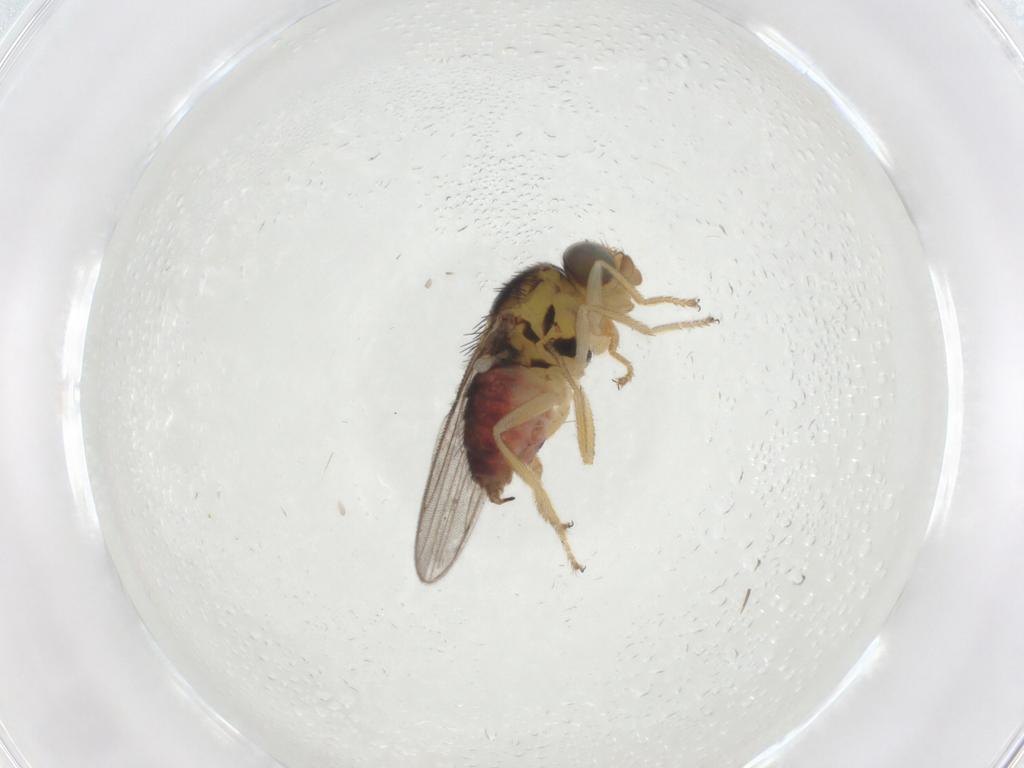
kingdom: Animalia
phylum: Arthropoda
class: Insecta
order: Diptera
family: Chloropidae
